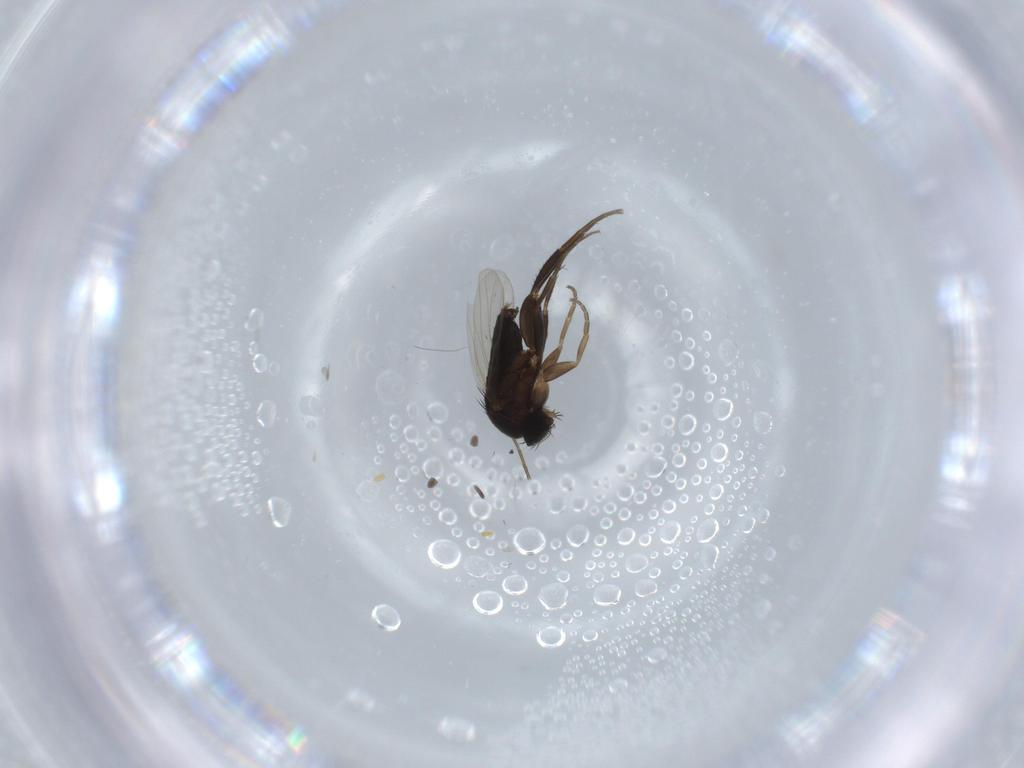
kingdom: Animalia
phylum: Arthropoda
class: Insecta
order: Diptera
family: Phoridae
